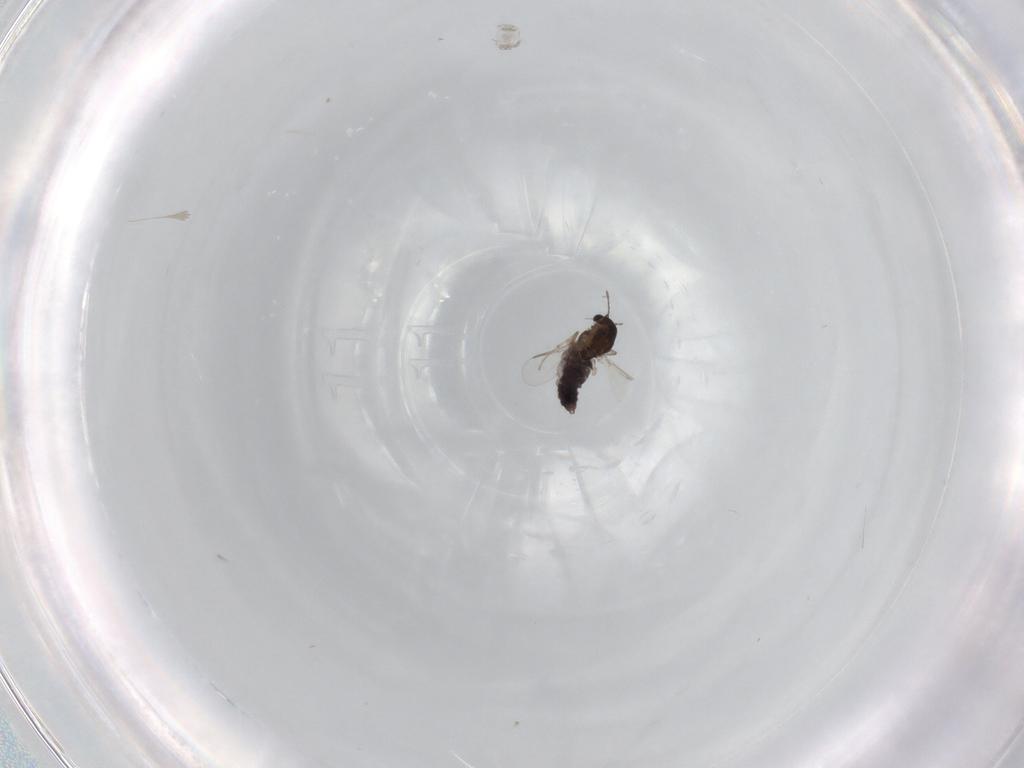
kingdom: Animalia
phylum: Arthropoda
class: Insecta
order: Diptera
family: Chironomidae
